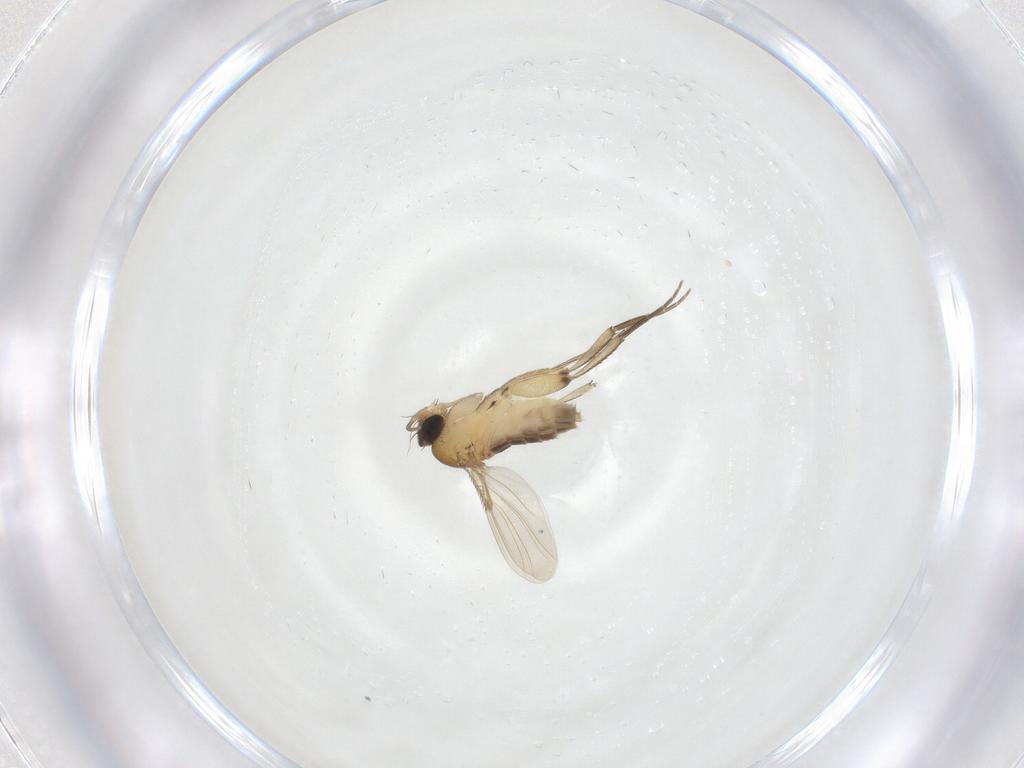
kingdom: Animalia
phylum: Arthropoda
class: Insecta
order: Diptera
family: Phoridae
